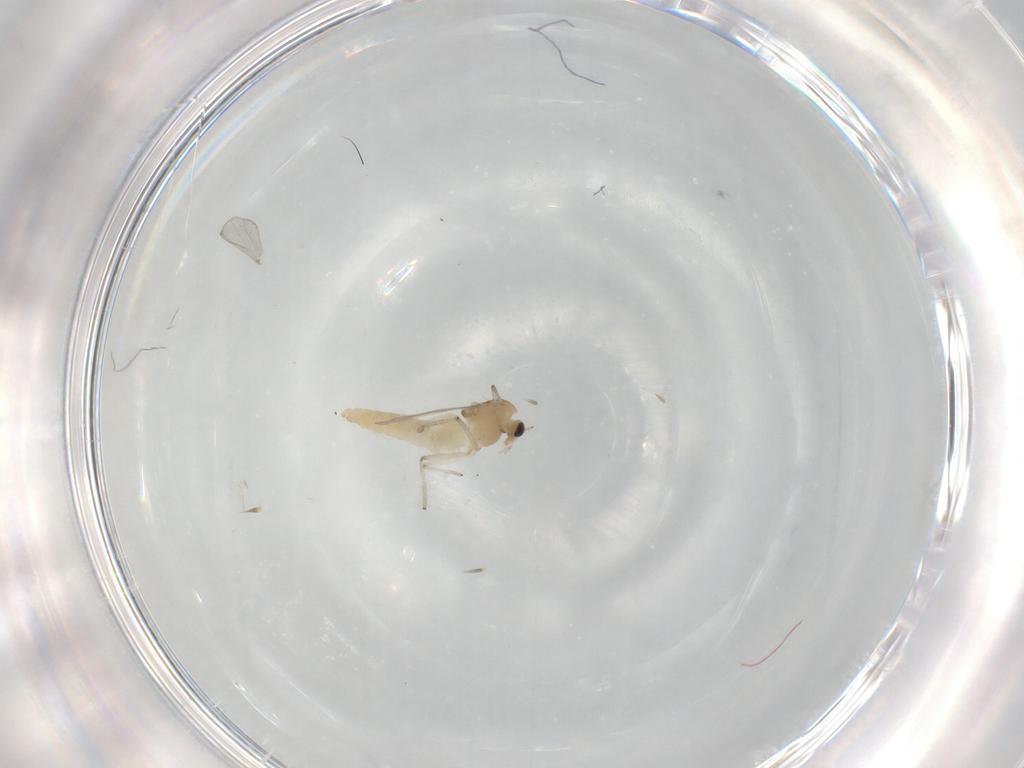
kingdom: Animalia
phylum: Arthropoda
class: Insecta
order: Diptera
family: Chironomidae
